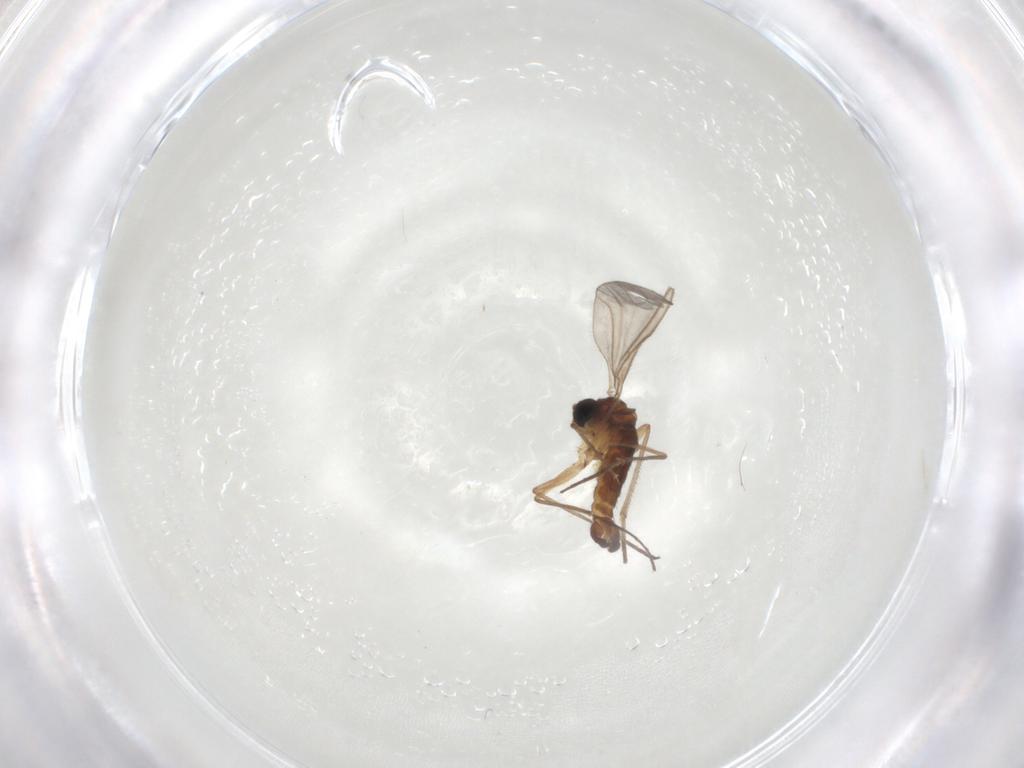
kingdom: Animalia
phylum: Arthropoda
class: Insecta
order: Diptera
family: Sciaridae
